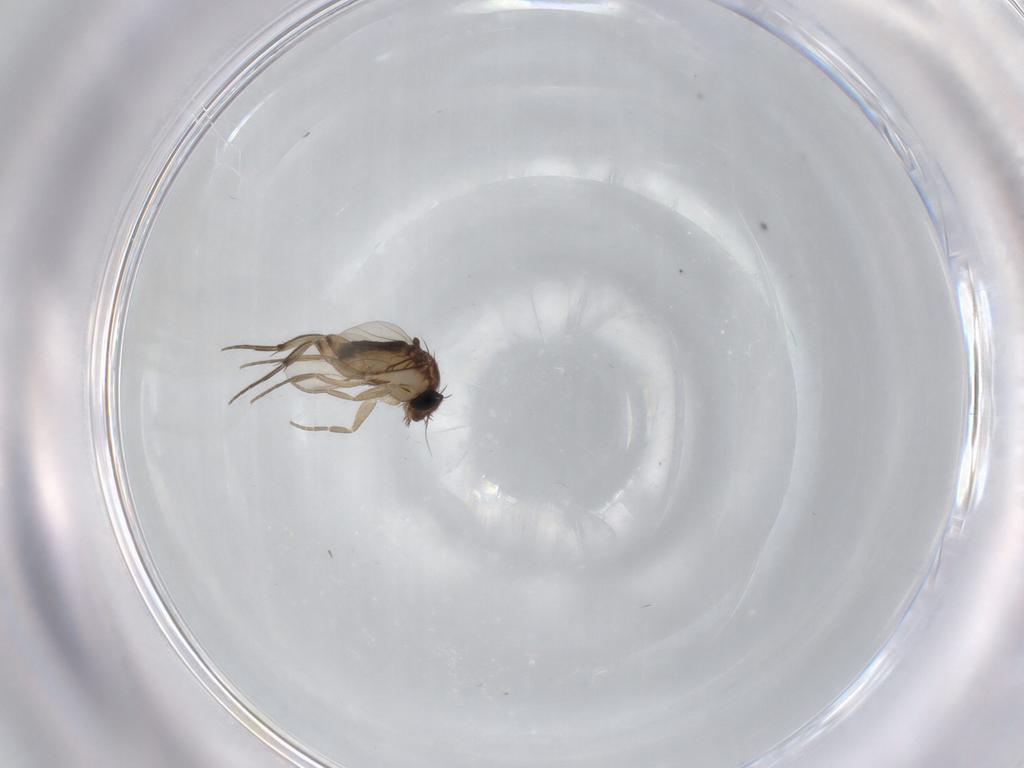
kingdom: Animalia
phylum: Arthropoda
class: Insecta
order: Diptera
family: Phoridae
